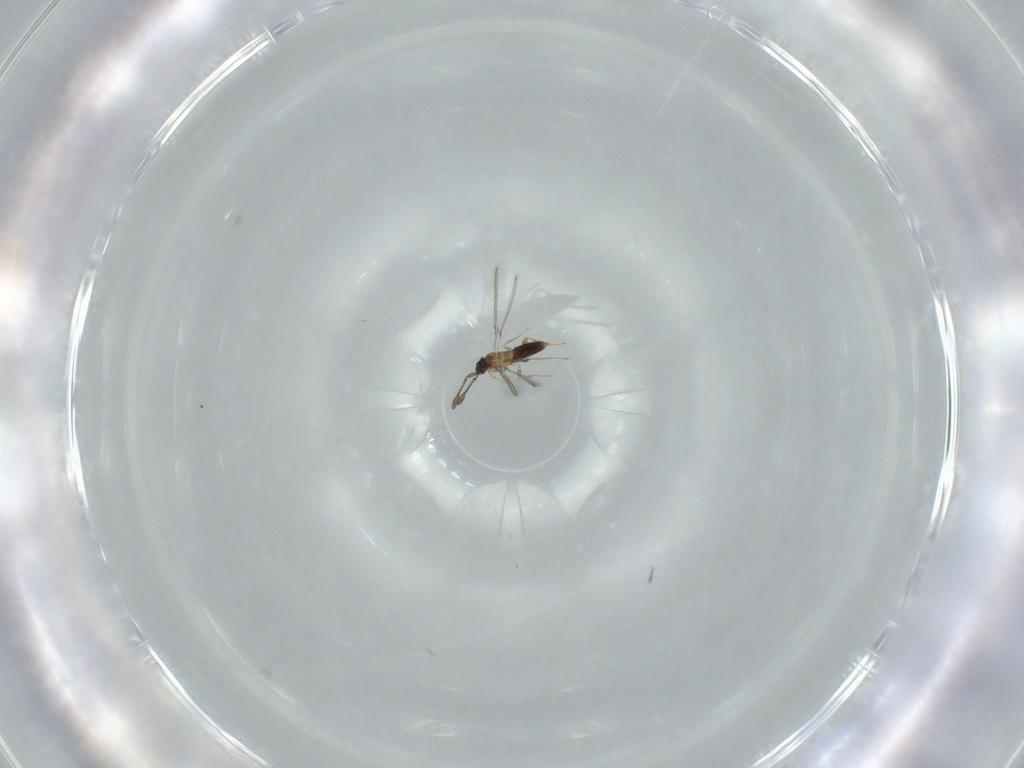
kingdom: Animalia
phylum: Arthropoda
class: Insecta
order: Hymenoptera
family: Mymaridae
